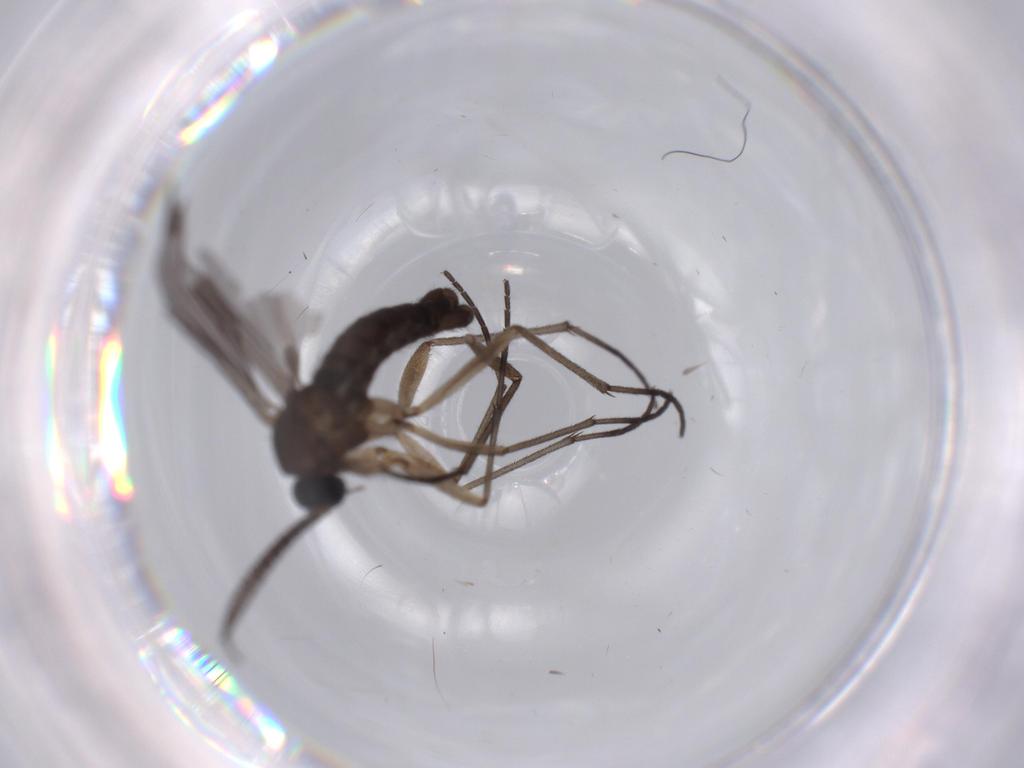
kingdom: Animalia
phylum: Arthropoda
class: Insecta
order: Diptera
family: Sciaridae
